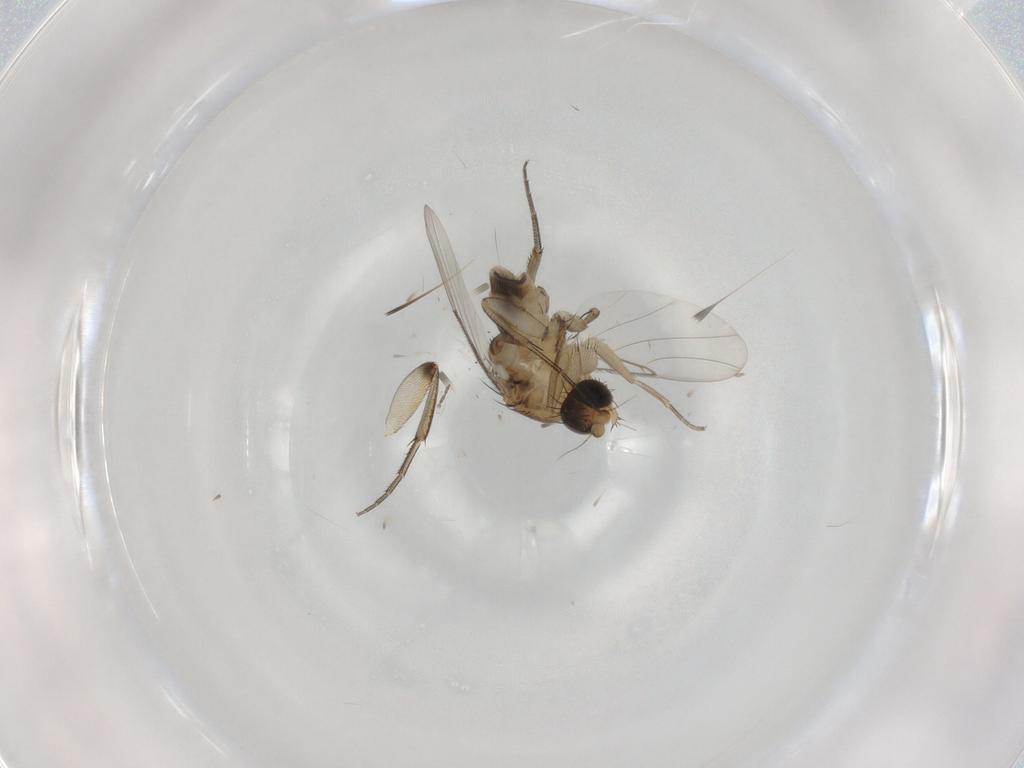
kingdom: Animalia
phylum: Arthropoda
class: Insecta
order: Diptera
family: Phoridae
